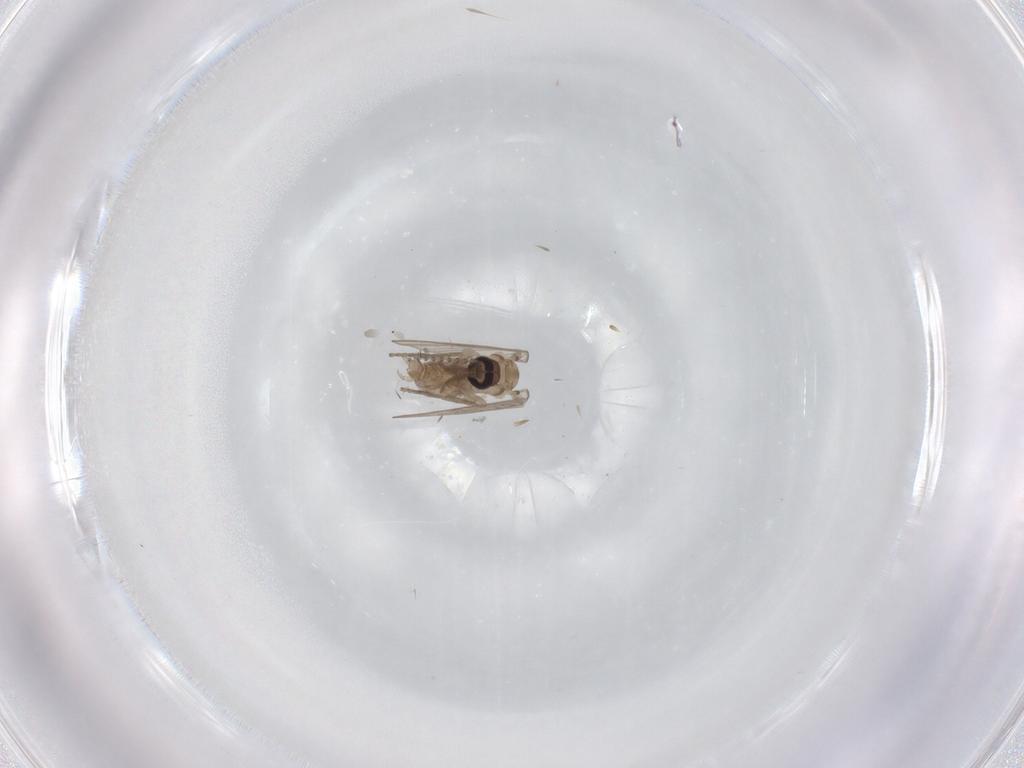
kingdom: Animalia
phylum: Arthropoda
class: Insecta
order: Diptera
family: Psychodidae
